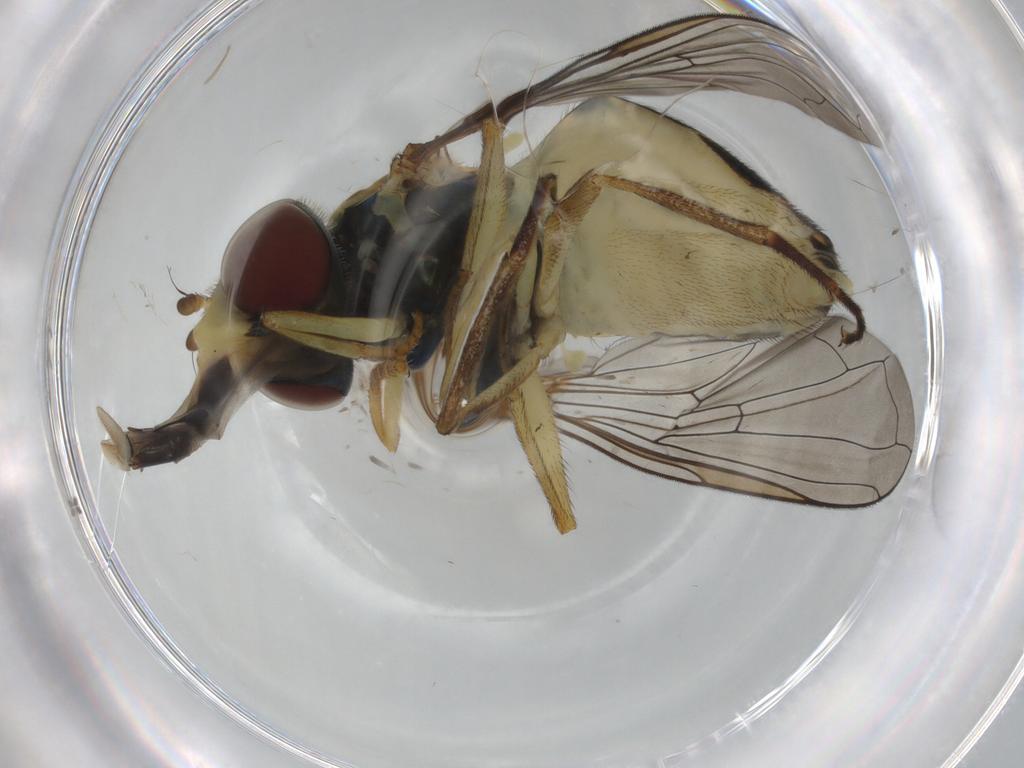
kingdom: Animalia
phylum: Arthropoda
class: Insecta
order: Diptera
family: Syrphidae
